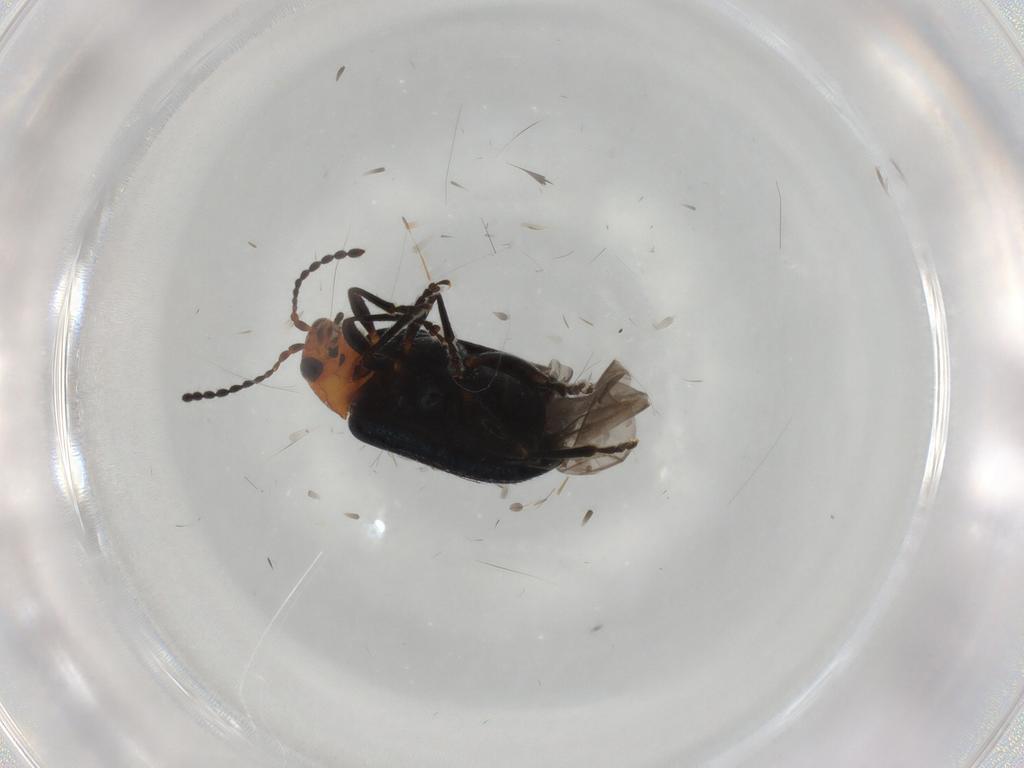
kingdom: Animalia
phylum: Arthropoda
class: Insecta
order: Coleoptera
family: Chrysomelidae
